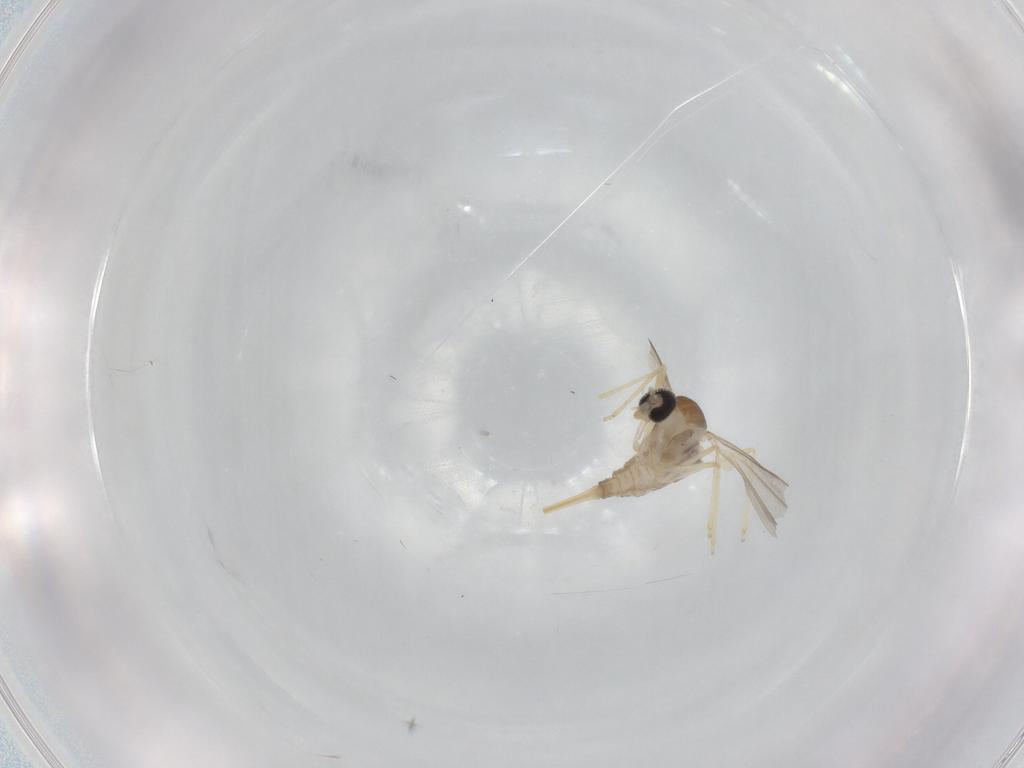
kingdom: Animalia
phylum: Arthropoda
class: Insecta
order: Diptera
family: Cecidomyiidae
